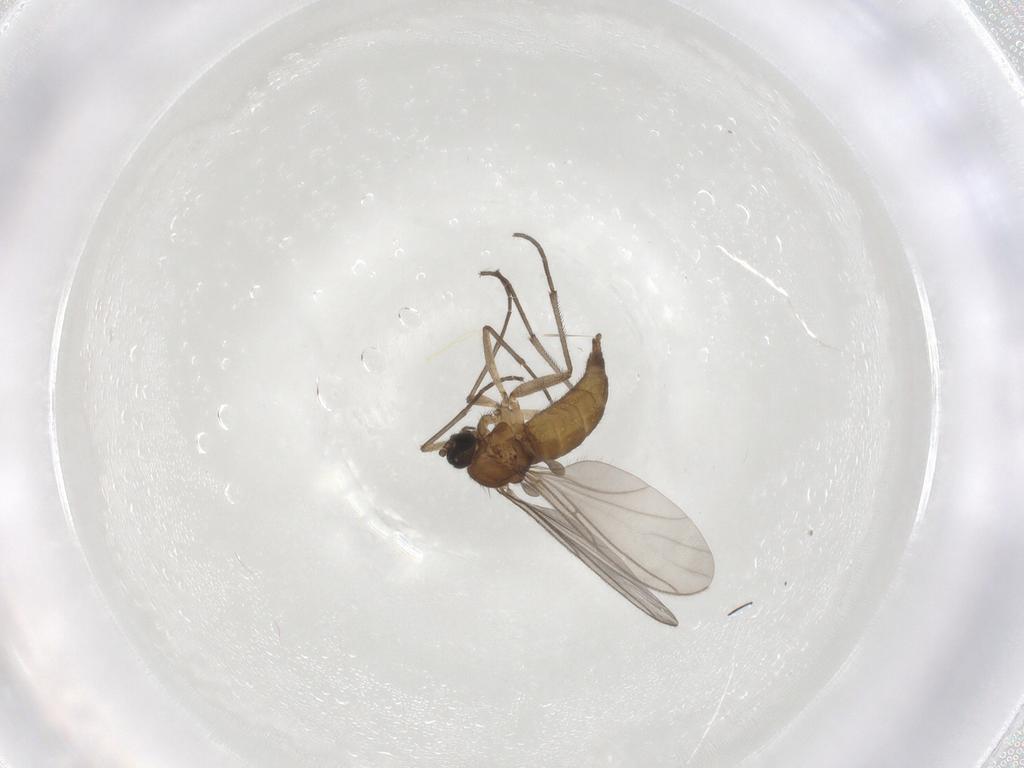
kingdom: Animalia
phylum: Arthropoda
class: Insecta
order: Diptera
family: Sciaridae
